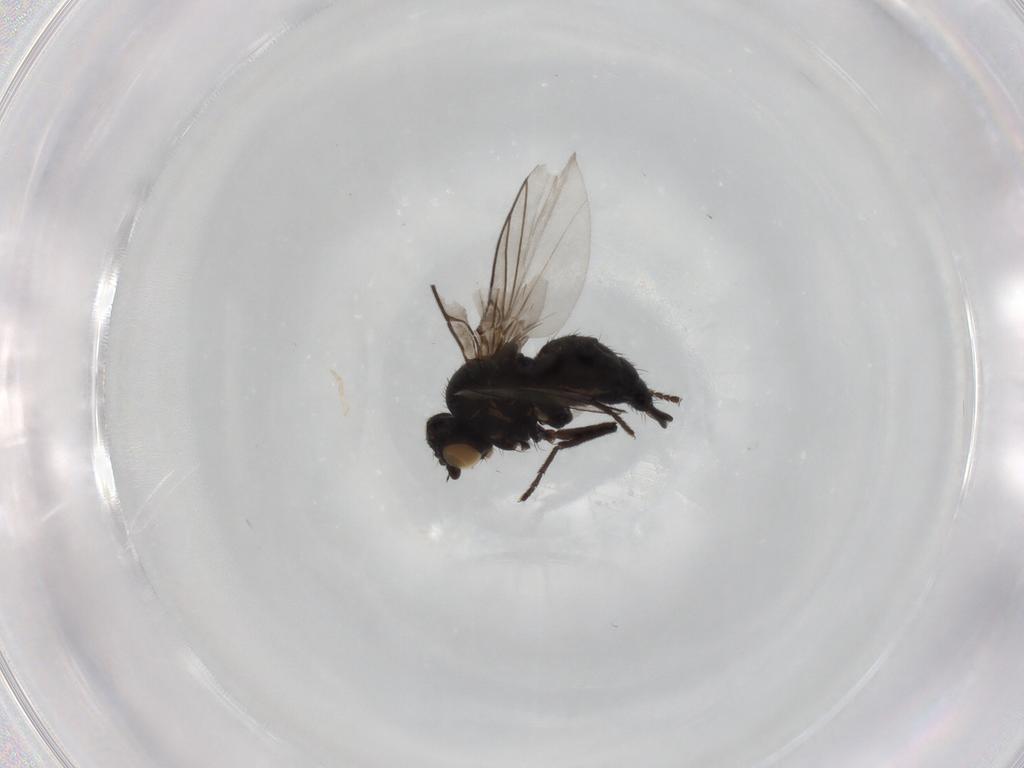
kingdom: Animalia
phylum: Arthropoda
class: Insecta
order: Diptera
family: Agromyzidae
